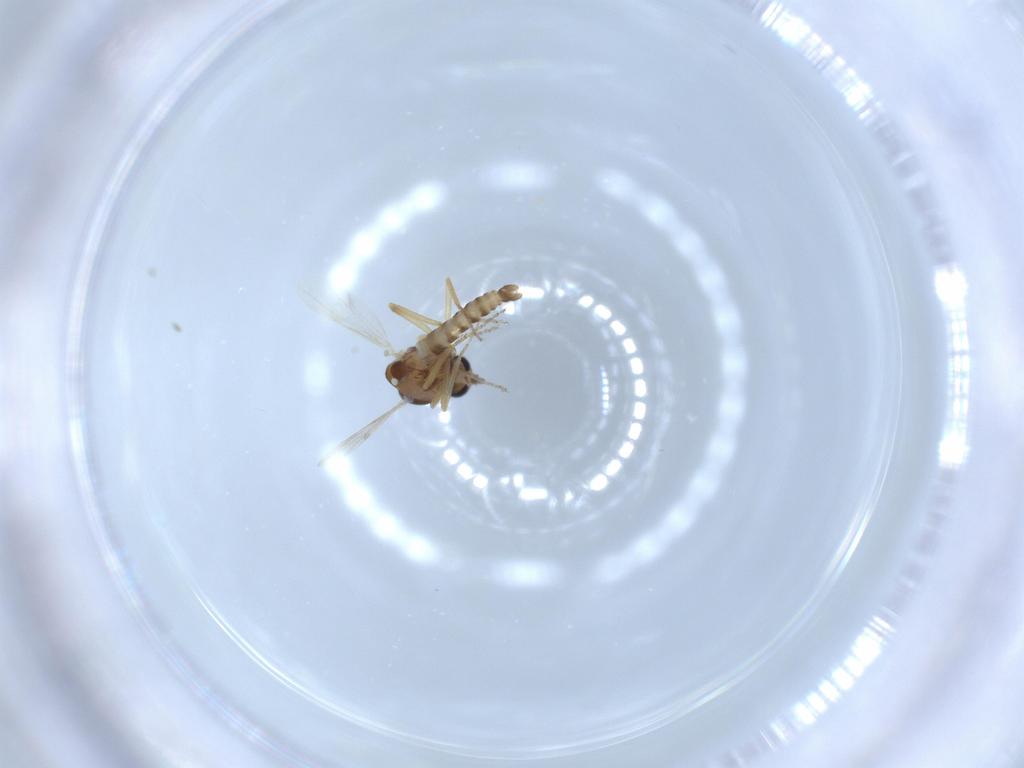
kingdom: Animalia
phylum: Arthropoda
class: Insecta
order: Diptera
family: Ceratopogonidae
